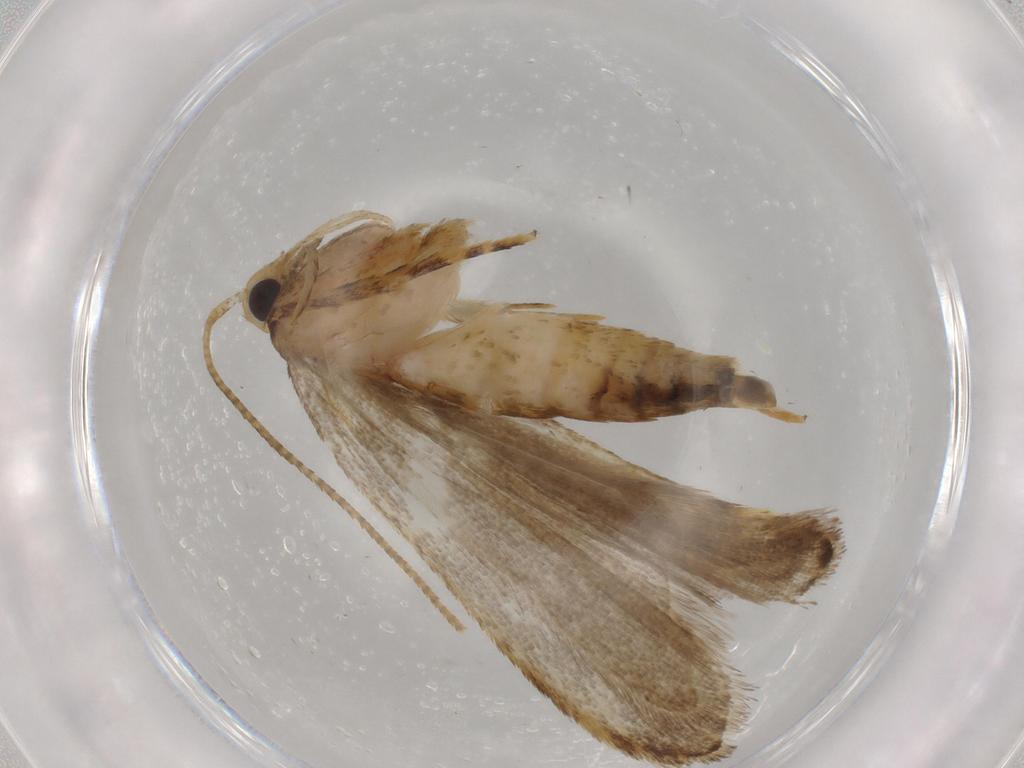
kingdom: Animalia
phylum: Arthropoda
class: Insecta
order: Lepidoptera
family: Autostichidae
